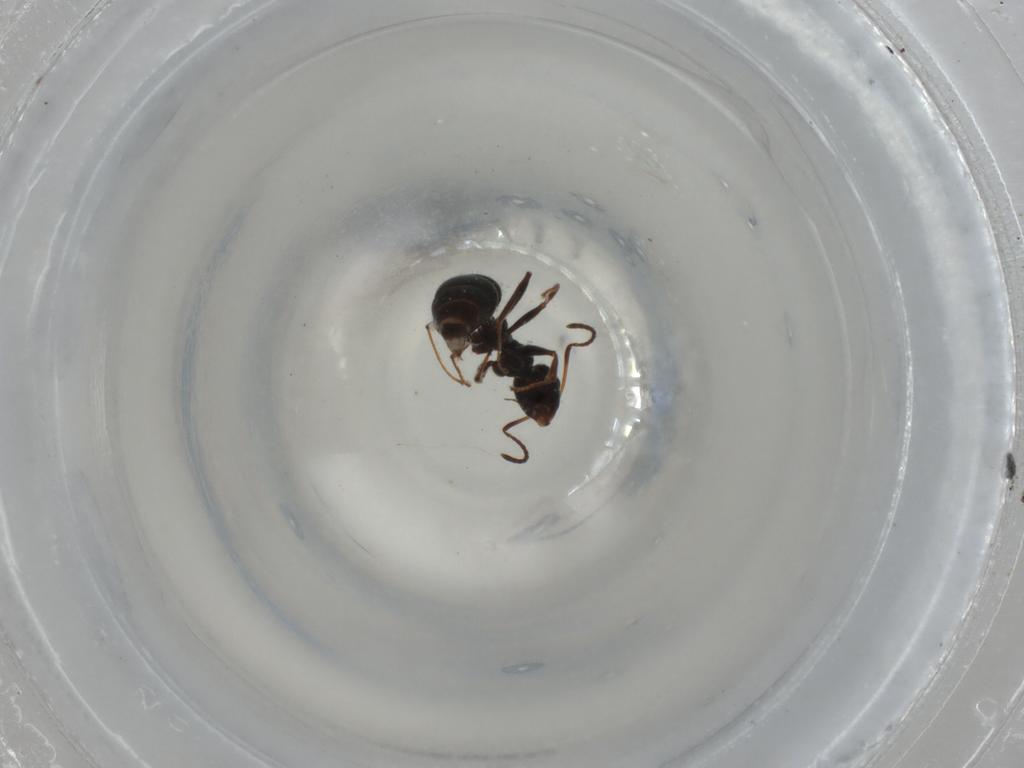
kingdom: Animalia
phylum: Arthropoda
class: Insecta
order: Hymenoptera
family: Formicidae
